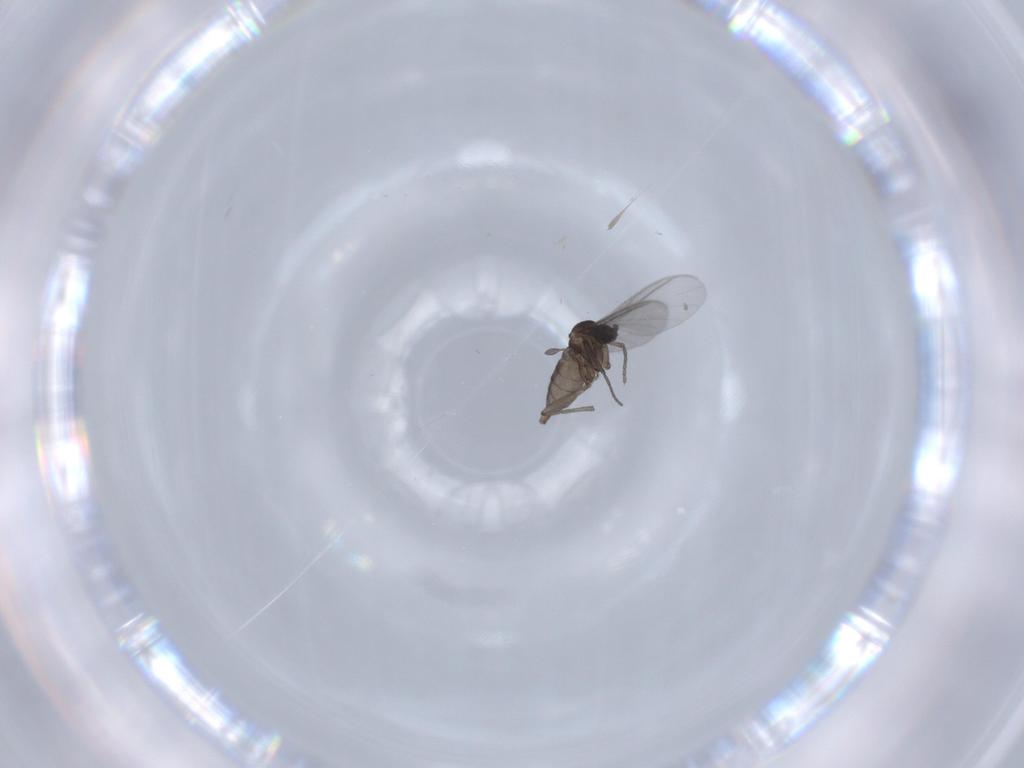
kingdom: Animalia
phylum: Arthropoda
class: Insecta
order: Diptera
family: Sciaridae
